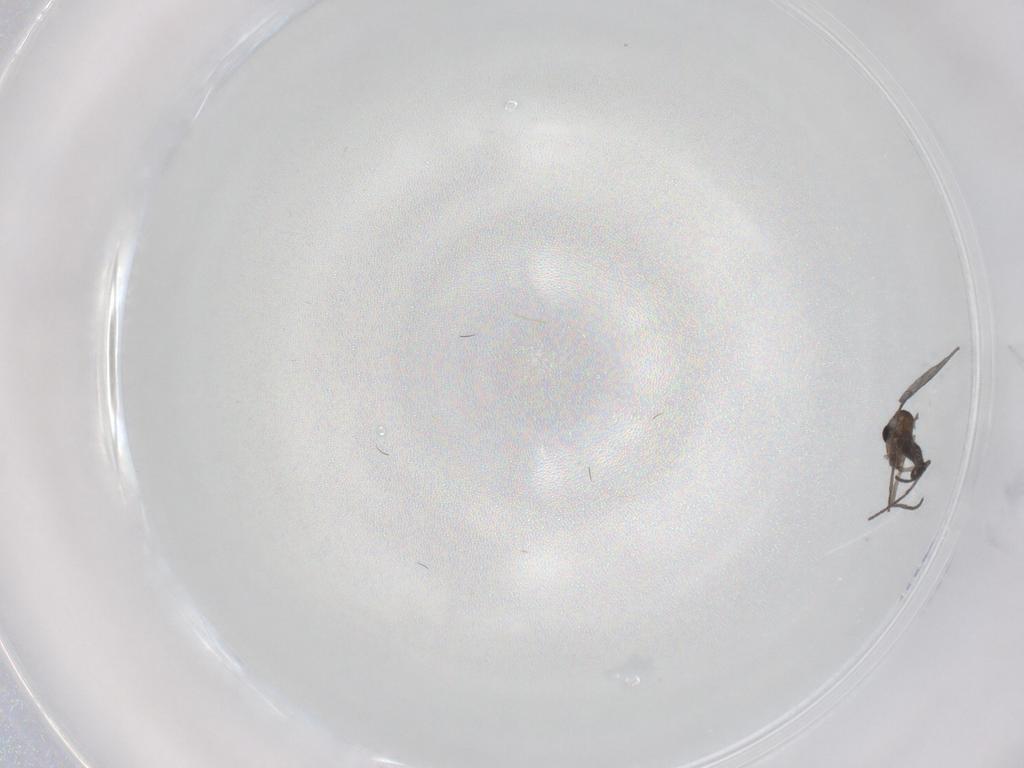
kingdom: Animalia
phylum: Arthropoda
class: Insecta
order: Diptera
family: Sciaridae
